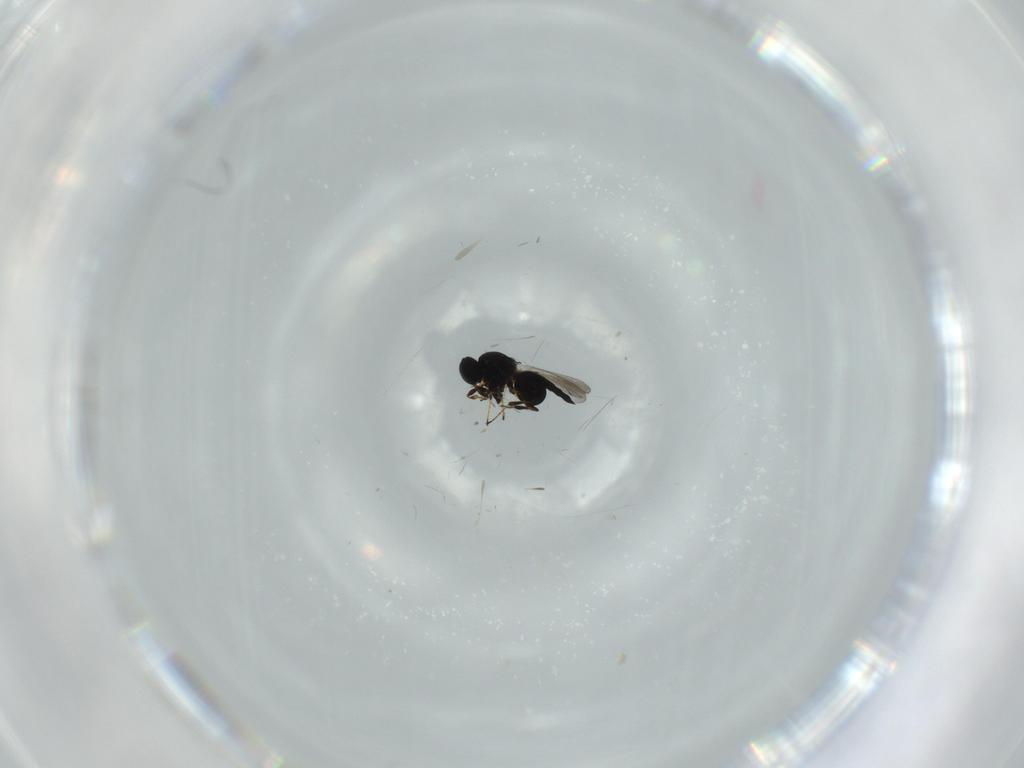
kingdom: Animalia
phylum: Arthropoda
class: Insecta
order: Hymenoptera
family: Platygastridae
